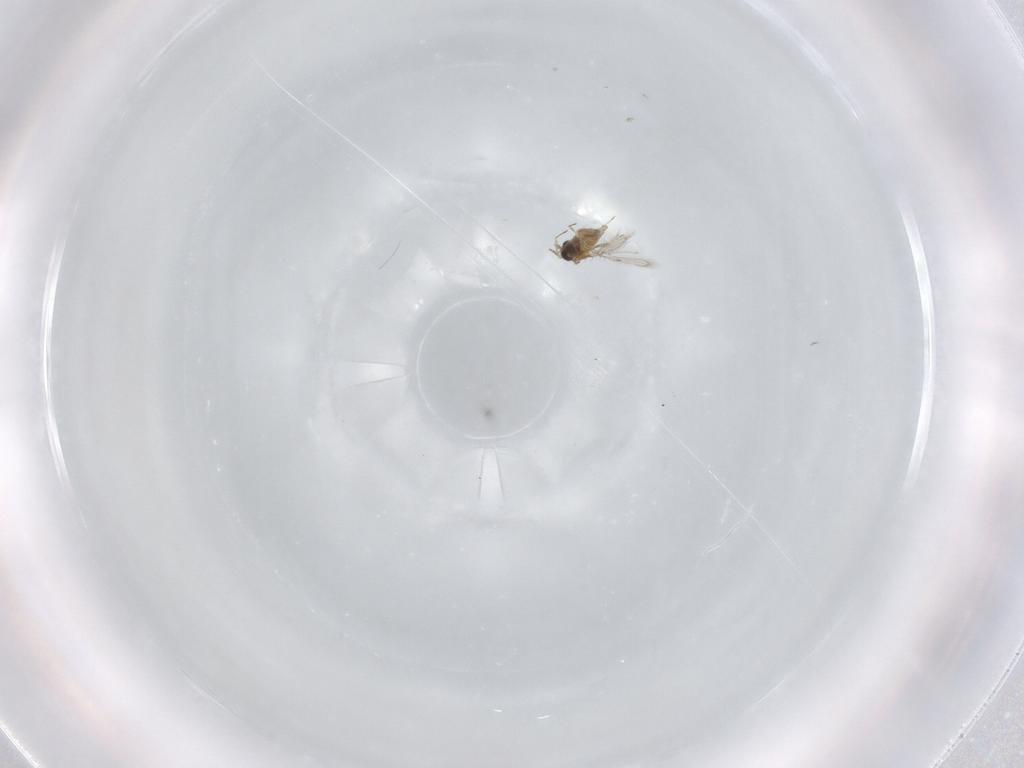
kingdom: Animalia
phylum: Arthropoda
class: Insecta
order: Hymenoptera
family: Trichogrammatidae
